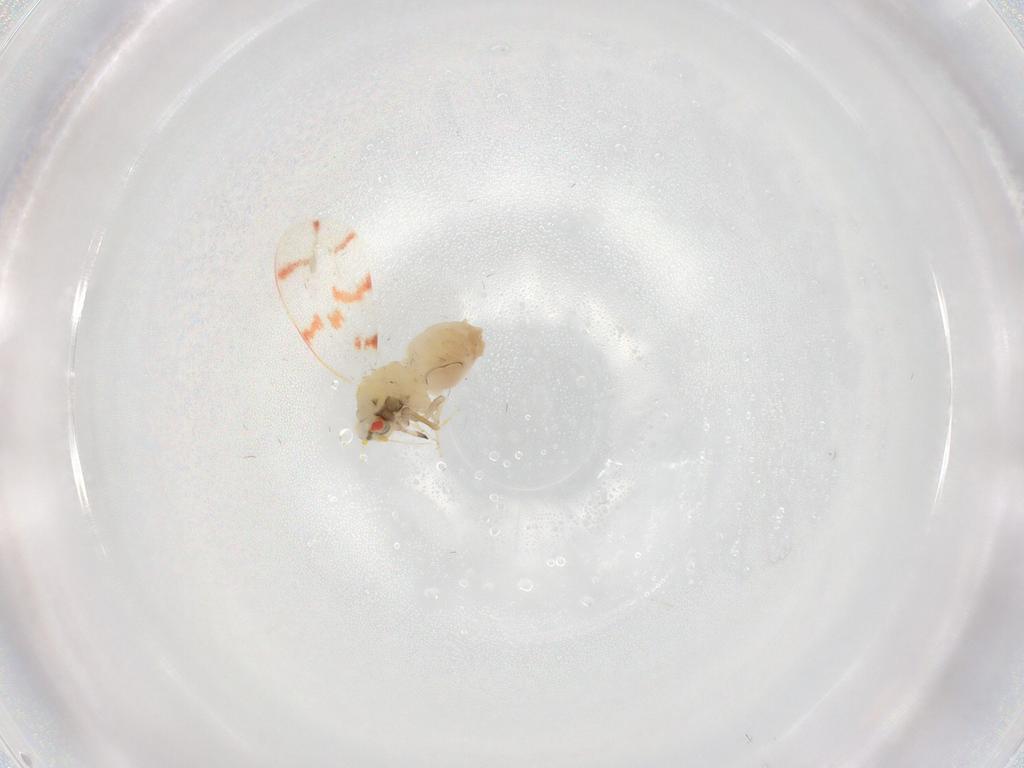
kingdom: Animalia
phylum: Arthropoda
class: Insecta
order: Hemiptera
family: Aleyrodidae
